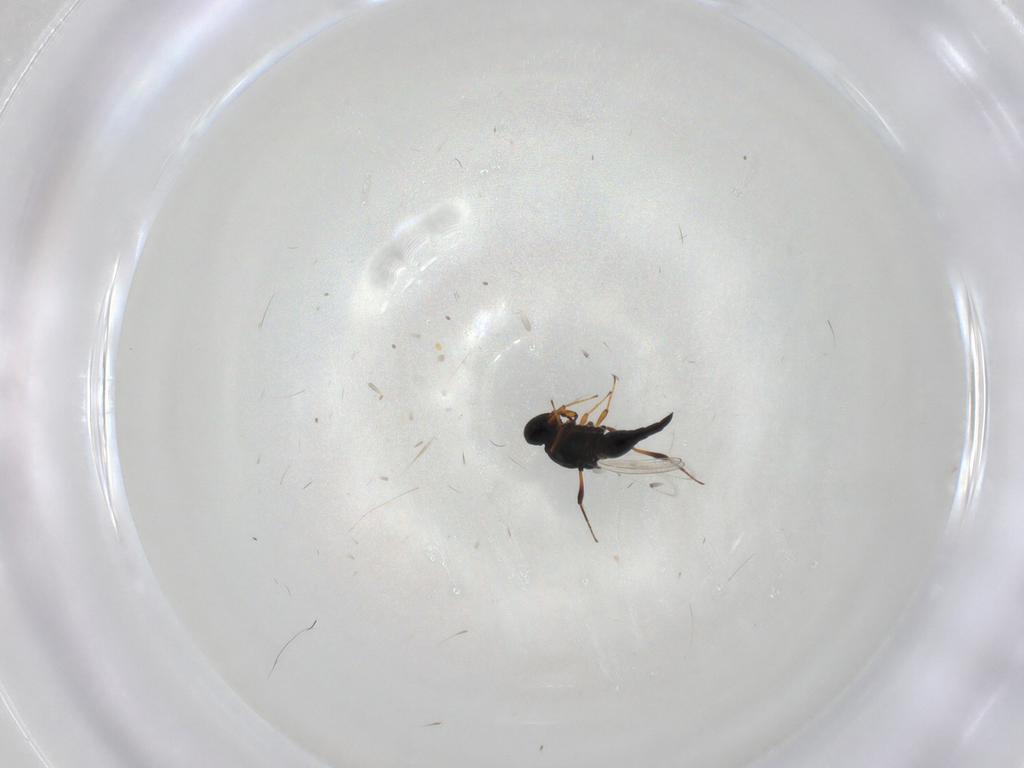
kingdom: Animalia
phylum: Arthropoda
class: Insecta
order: Hymenoptera
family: Platygastridae
